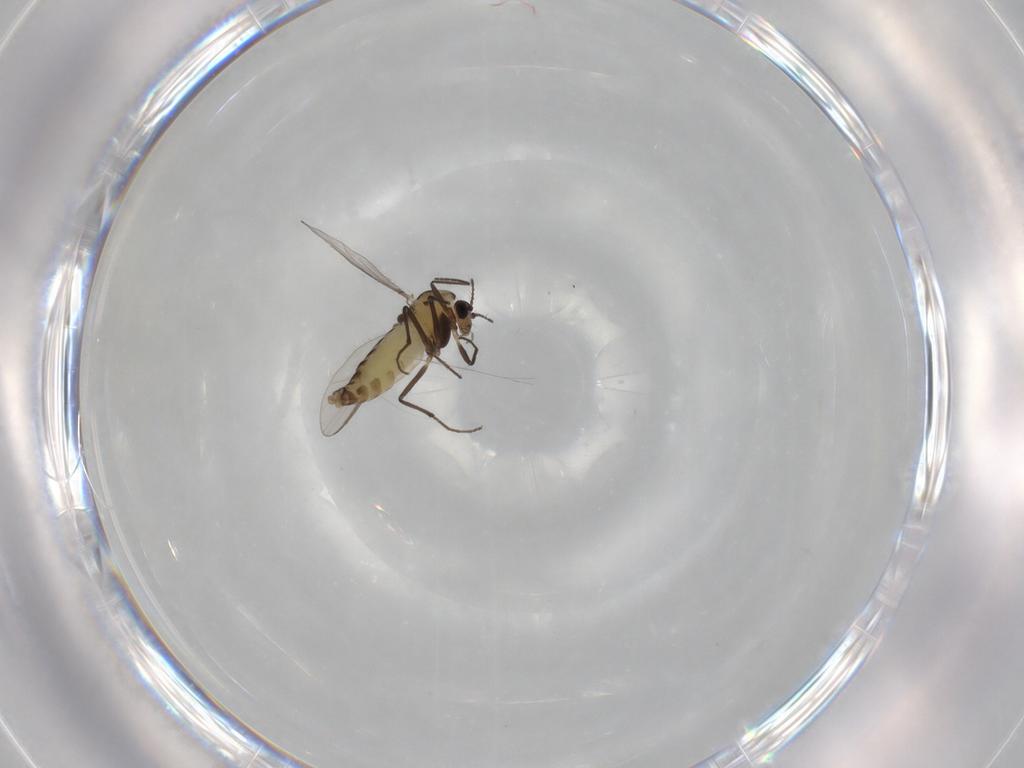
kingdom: Animalia
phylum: Arthropoda
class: Insecta
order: Diptera
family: Chironomidae
